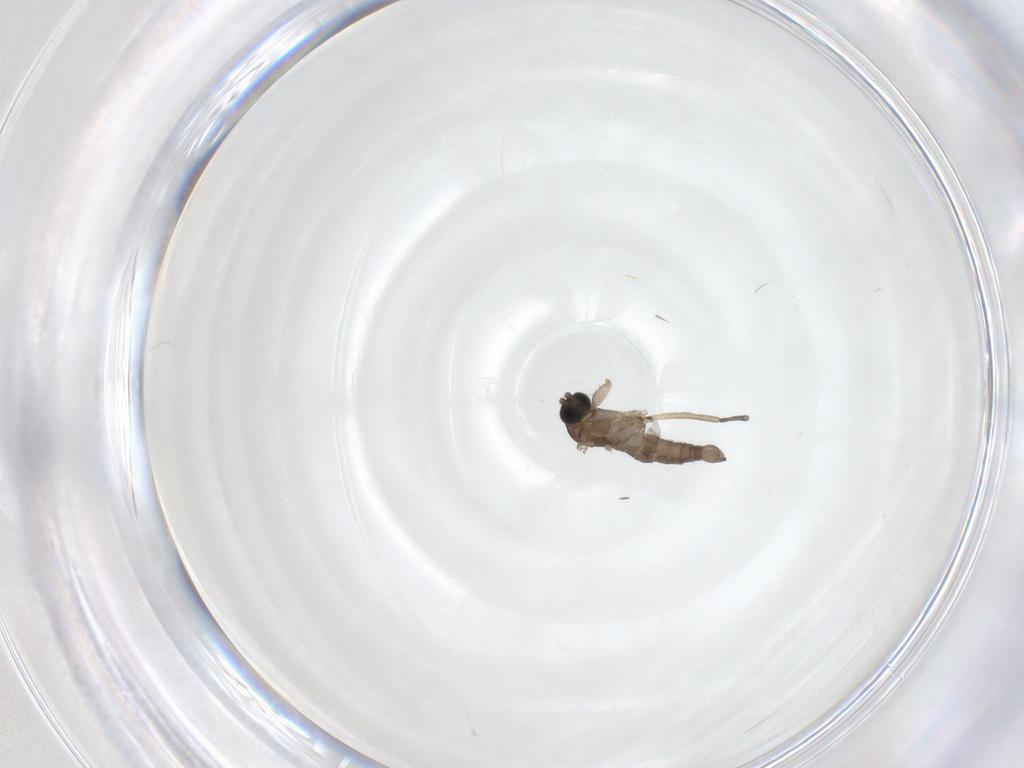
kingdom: Animalia
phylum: Arthropoda
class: Insecta
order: Diptera
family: Sciaridae
